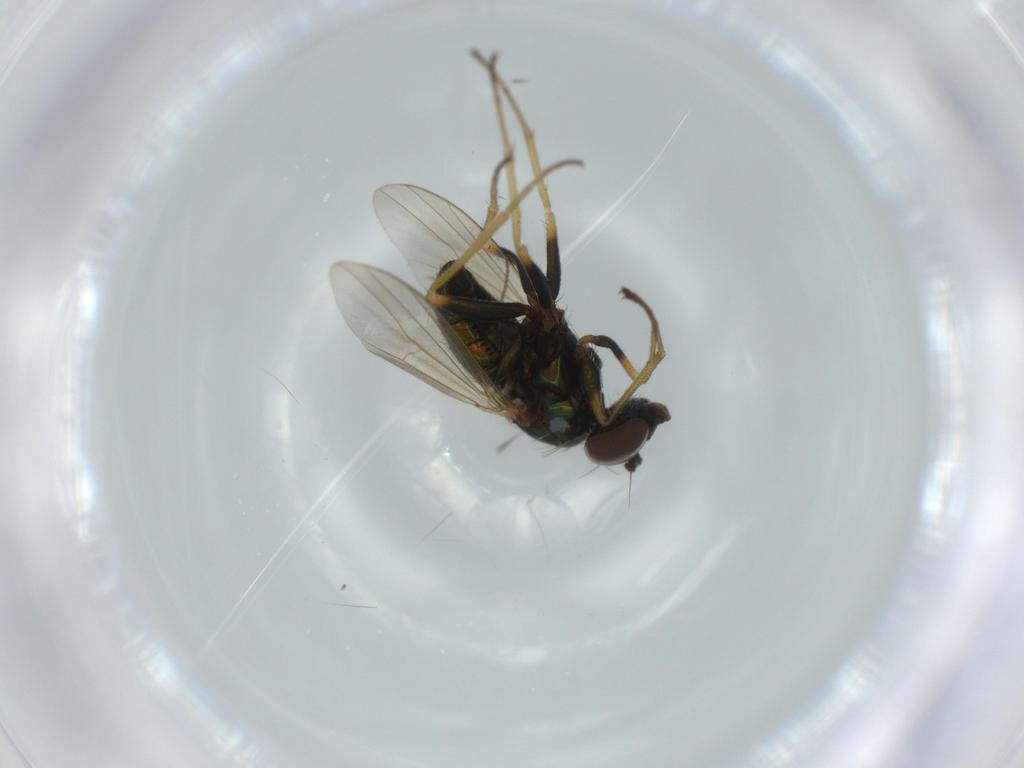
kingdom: Animalia
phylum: Arthropoda
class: Insecta
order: Diptera
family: Dolichopodidae
